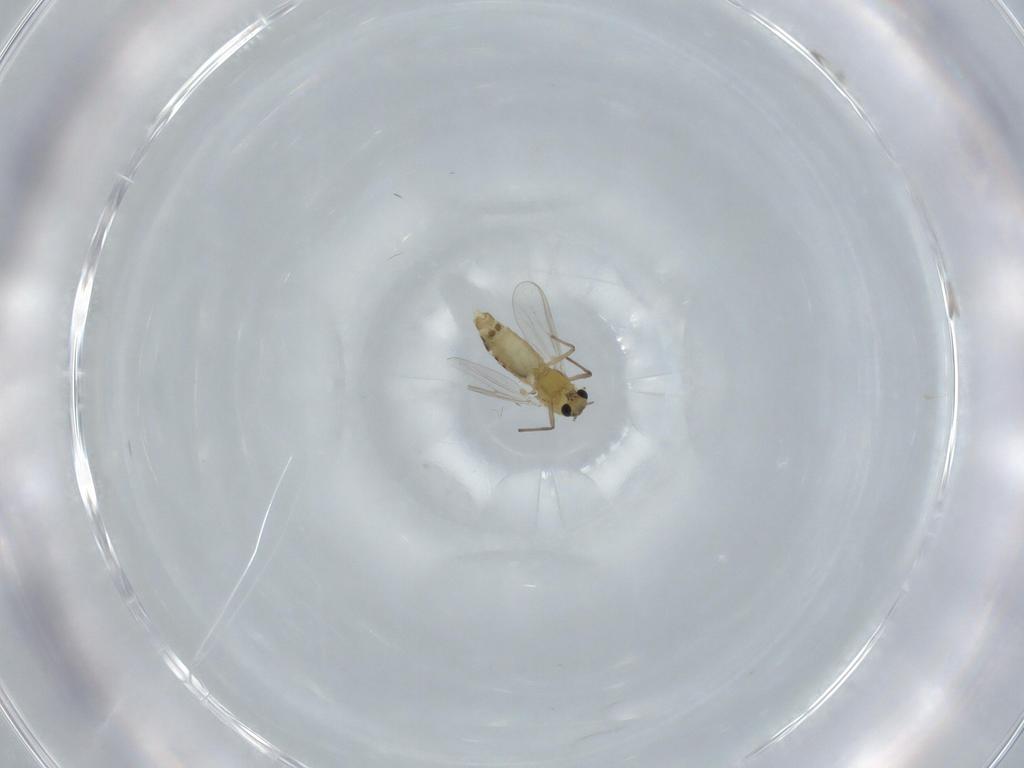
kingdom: Animalia
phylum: Arthropoda
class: Insecta
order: Diptera
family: Chironomidae
